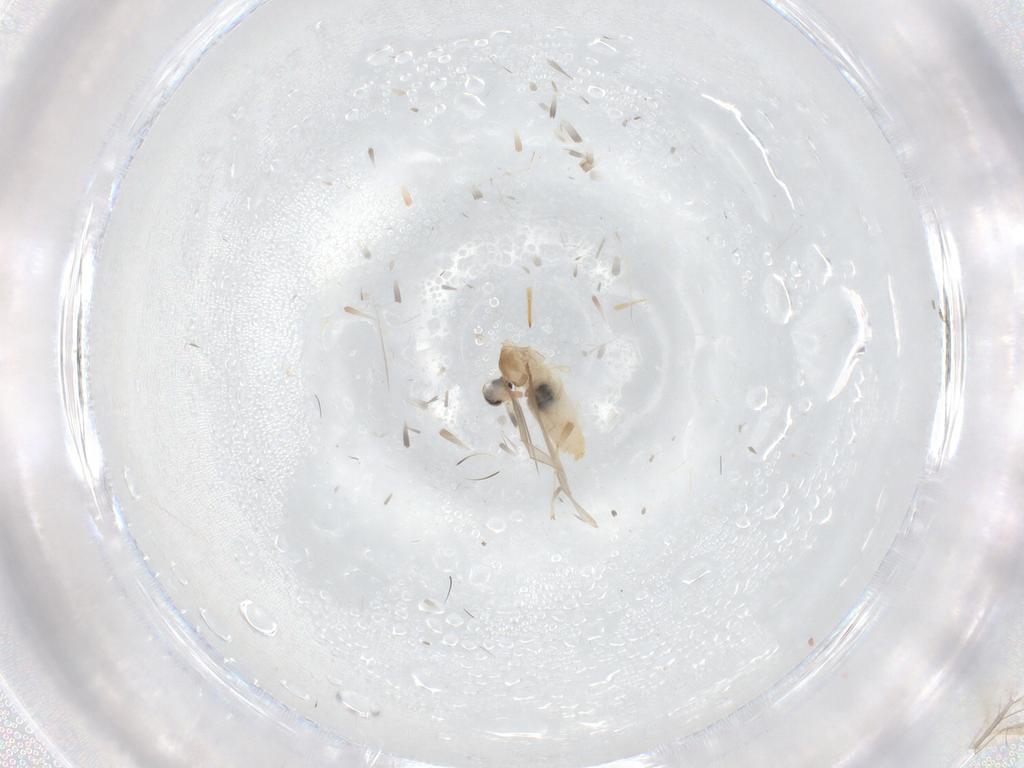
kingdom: Animalia
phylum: Arthropoda
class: Insecta
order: Diptera
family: Cecidomyiidae
